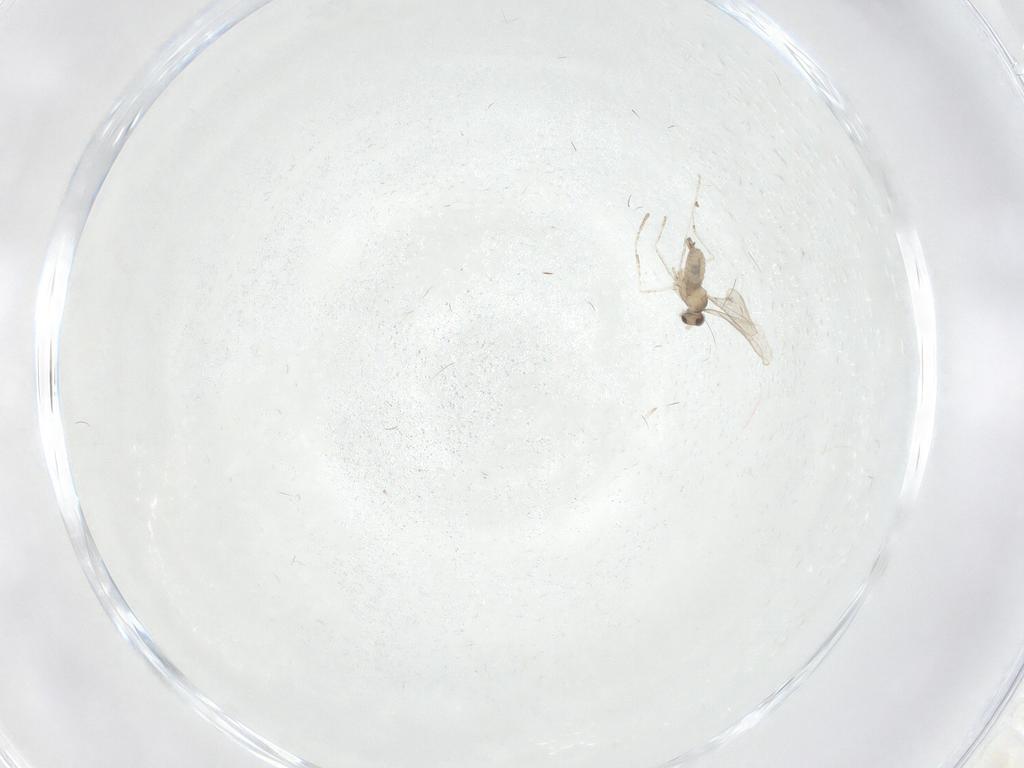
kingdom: Animalia
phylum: Arthropoda
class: Insecta
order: Diptera
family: Cecidomyiidae
